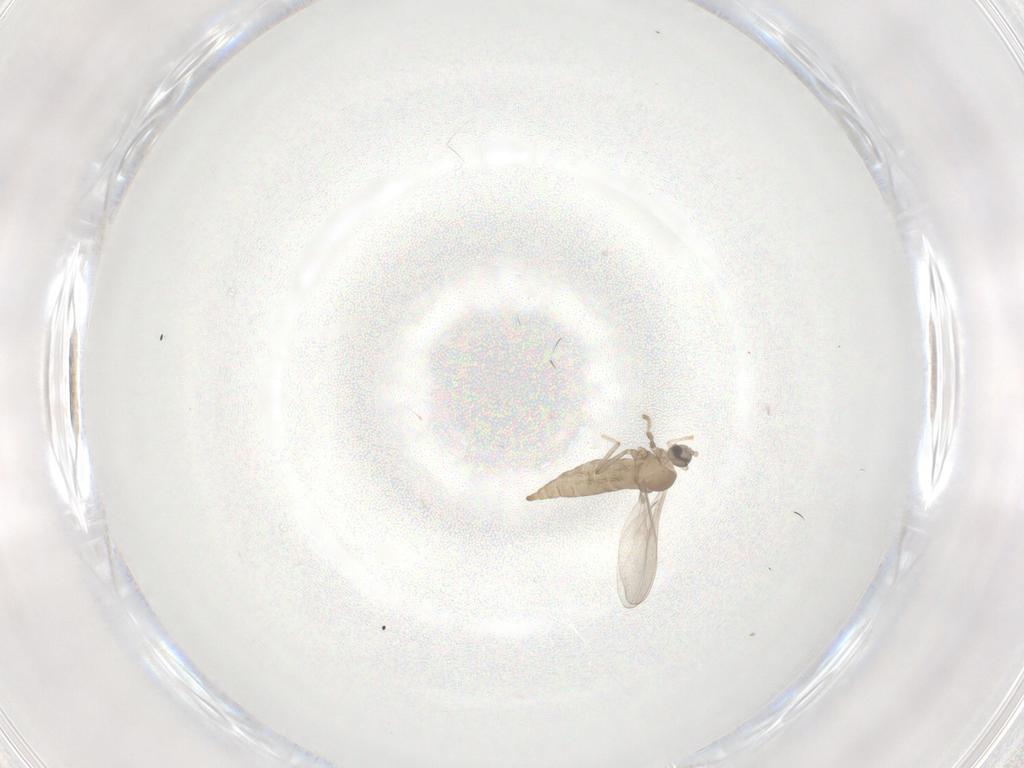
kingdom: Animalia
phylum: Arthropoda
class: Insecta
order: Diptera
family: Cecidomyiidae
